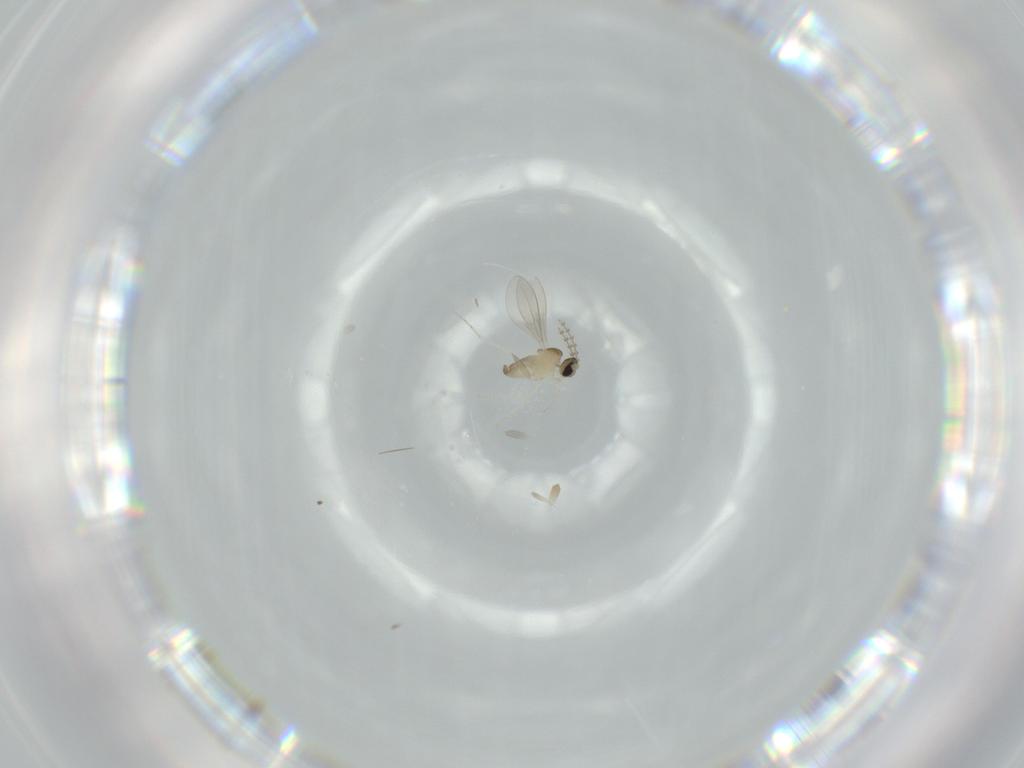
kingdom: Animalia
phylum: Arthropoda
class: Insecta
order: Diptera
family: Cecidomyiidae
